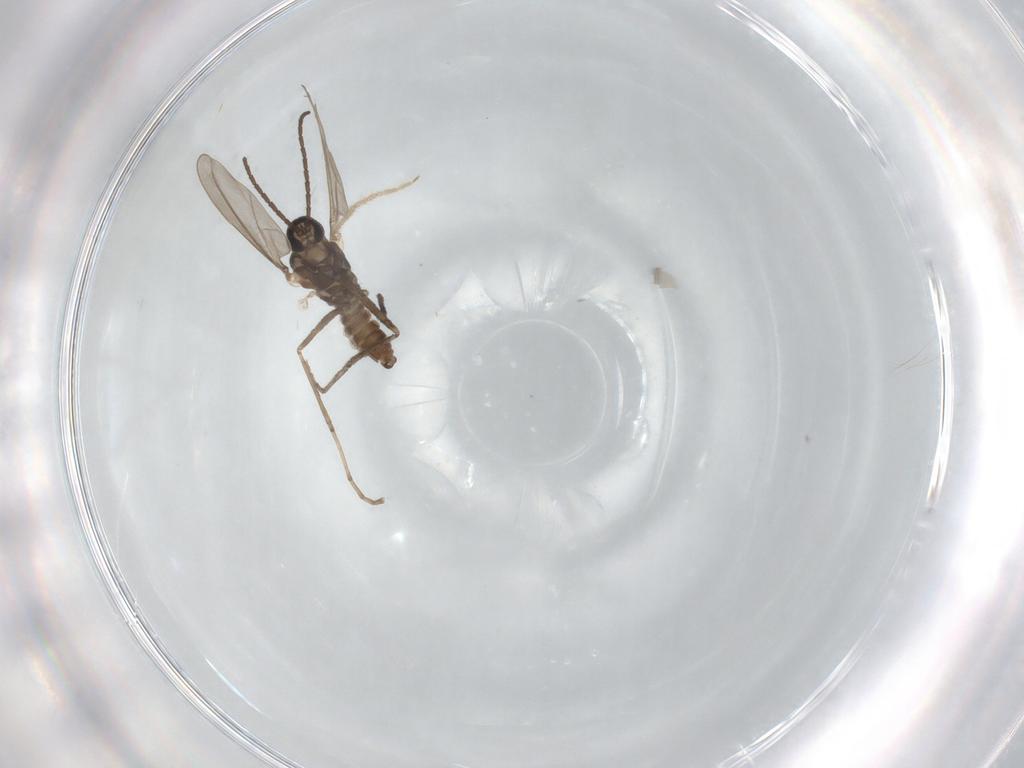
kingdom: Animalia
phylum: Arthropoda
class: Insecta
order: Diptera
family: Cecidomyiidae
